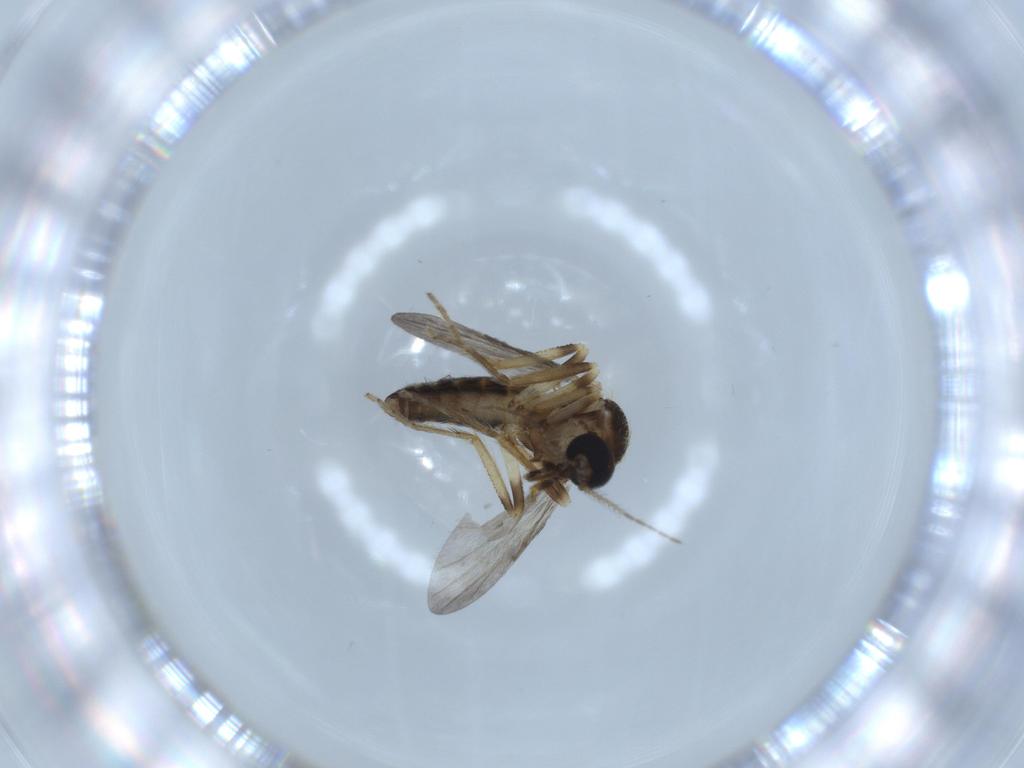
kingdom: Animalia
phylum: Arthropoda
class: Insecta
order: Diptera
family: Ceratopogonidae
